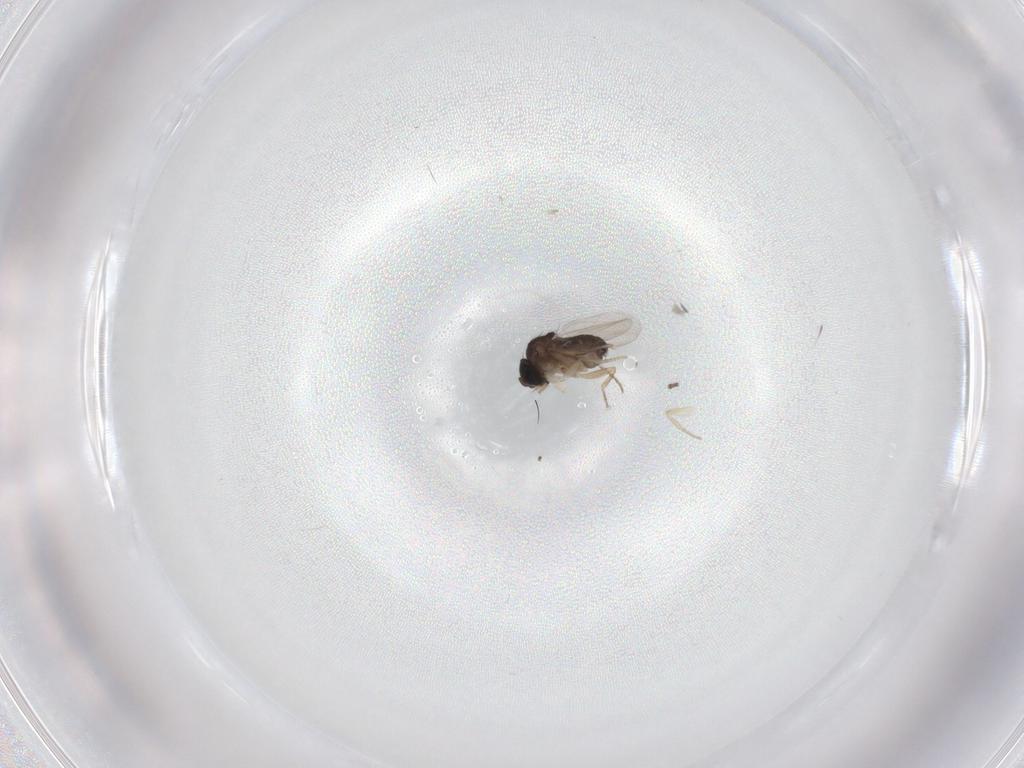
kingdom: Animalia
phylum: Arthropoda
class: Insecta
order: Diptera
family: Phoridae
